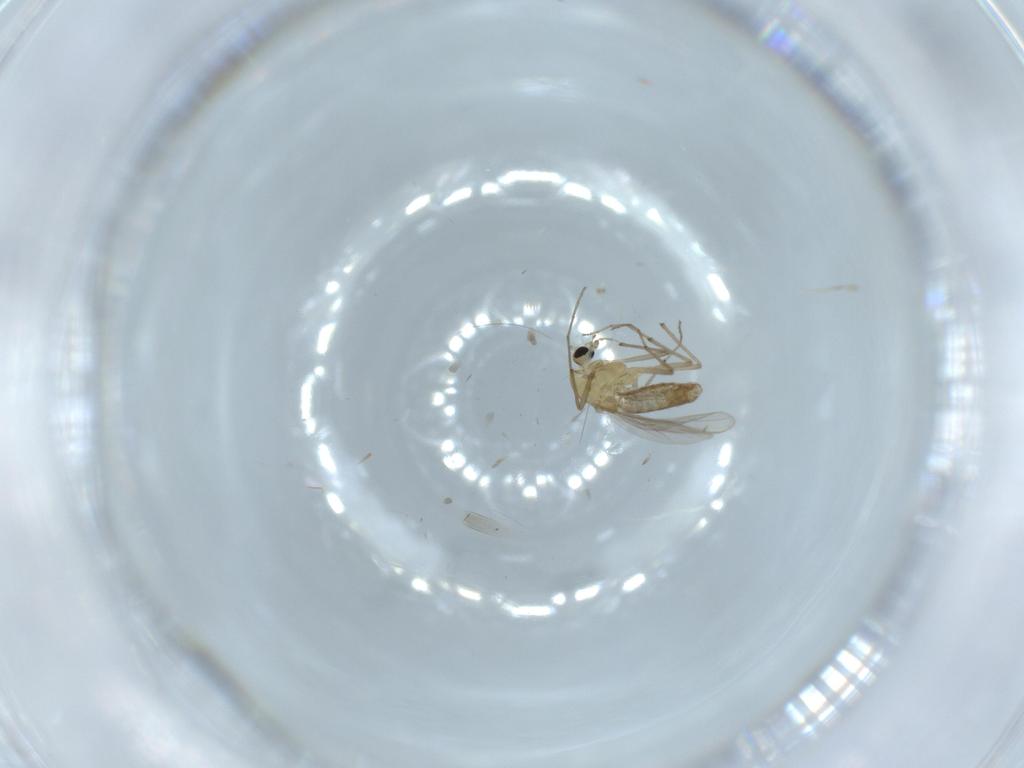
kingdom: Animalia
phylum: Arthropoda
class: Insecta
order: Diptera
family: Chironomidae
